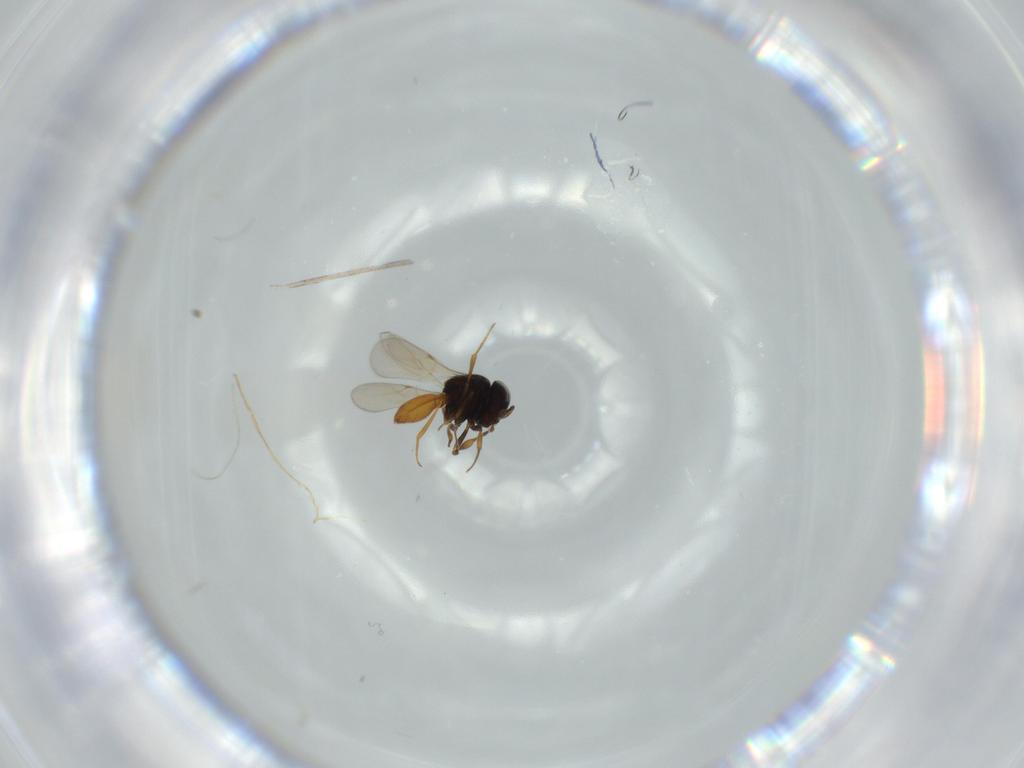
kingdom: Animalia
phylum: Arthropoda
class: Insecta
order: Hymenoptera
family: Scelionidae
